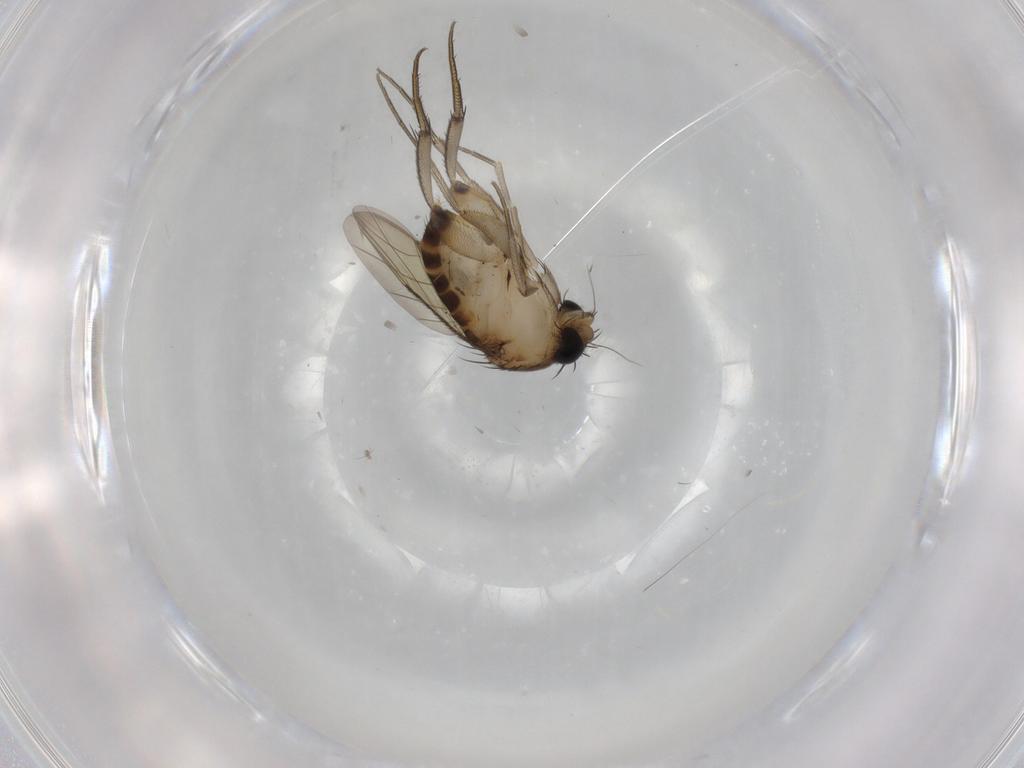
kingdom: Animalia
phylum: Arthropoda
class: Insecta
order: Diptera
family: Phoridae
